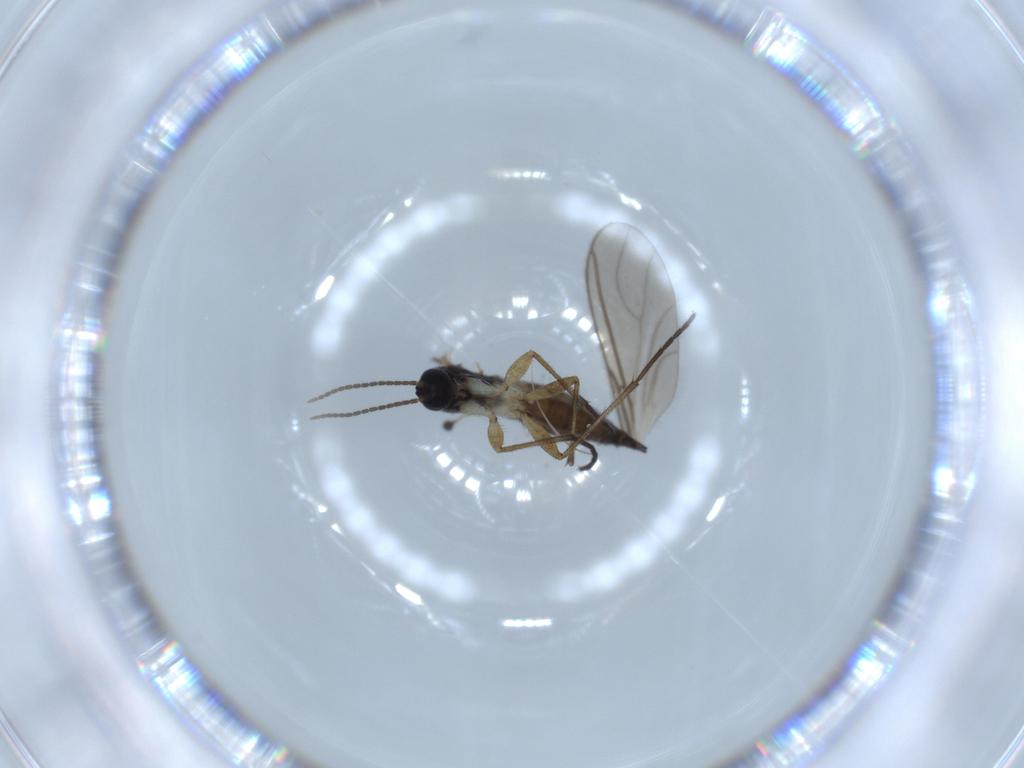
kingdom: Animalia
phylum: Arthropoda
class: Insecta
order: Diptera
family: Sciaridae
